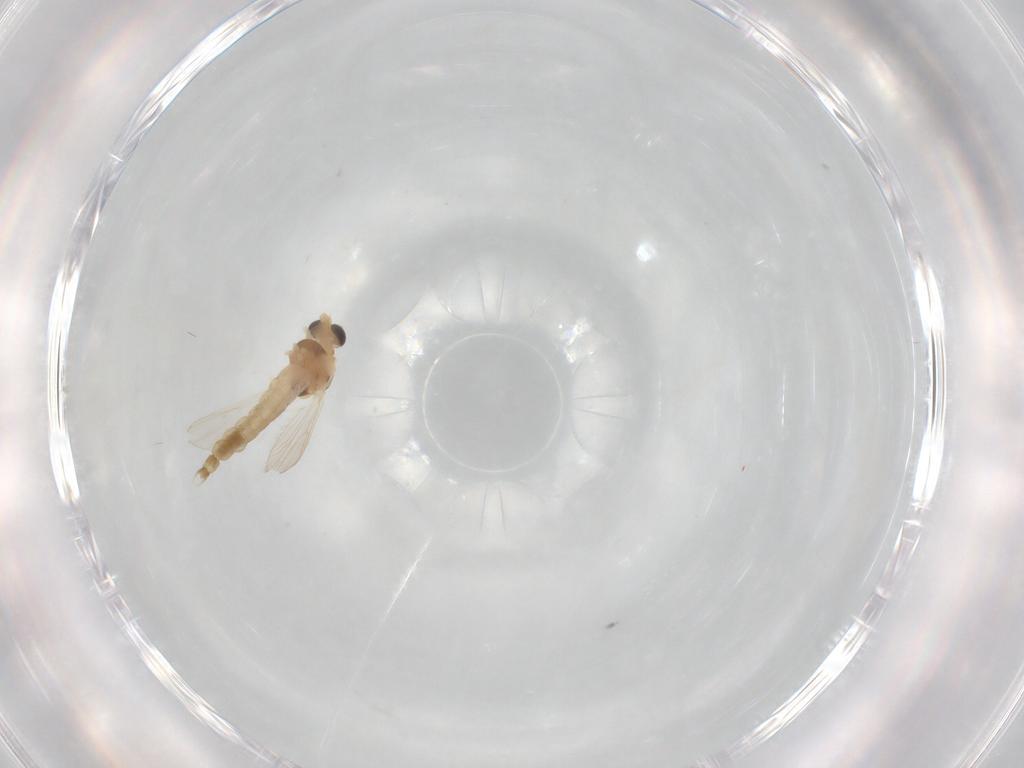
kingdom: Animalia
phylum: Arthropoda
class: Insecta
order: Diptera
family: Chironomidae
